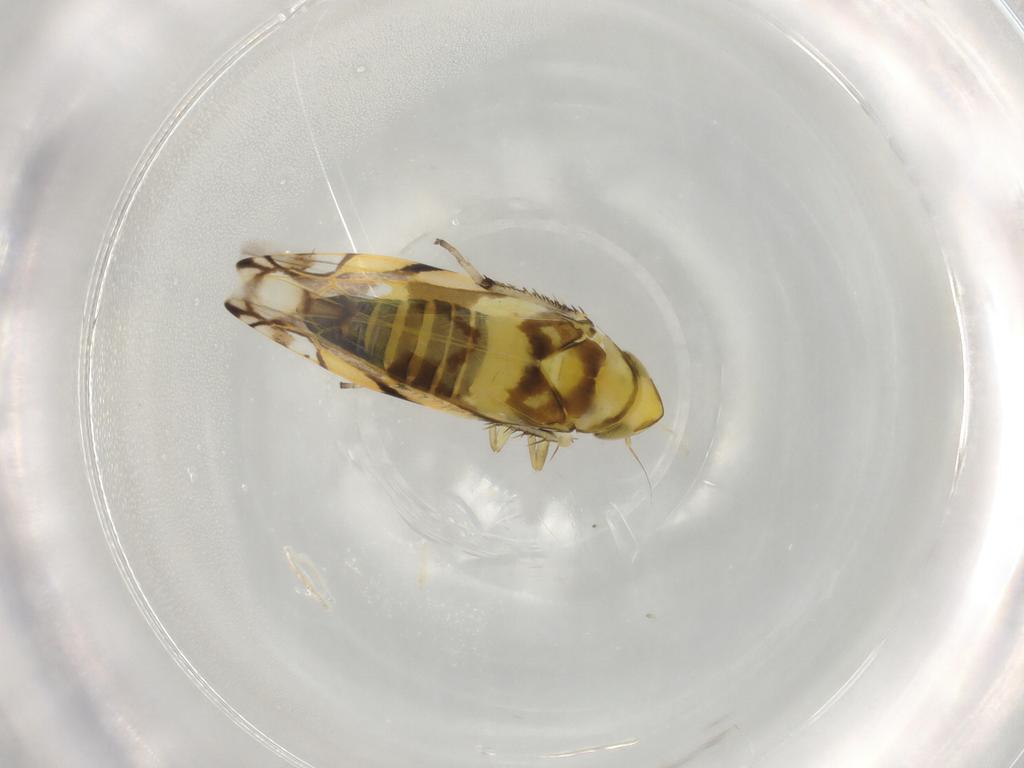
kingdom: Animalia
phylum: Arthropoda
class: Insecta
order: Hemiptera
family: Cicadellidae
